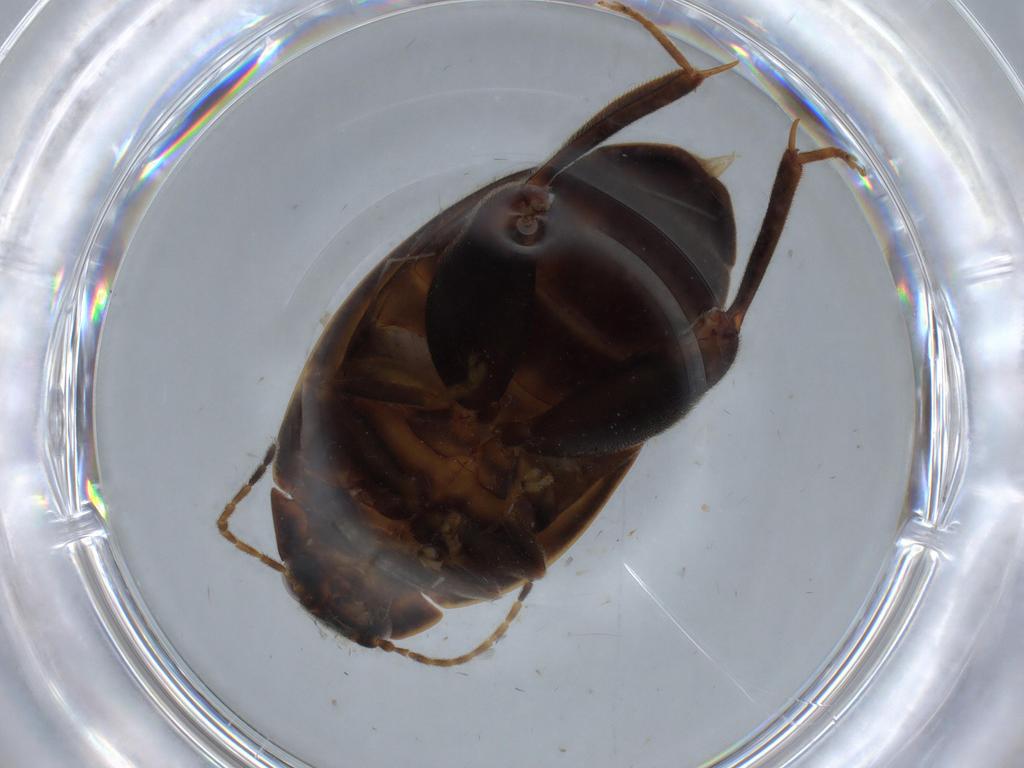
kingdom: Animalia
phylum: Arthropoda
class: Insecta
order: Coleoptera
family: Scirtidae
